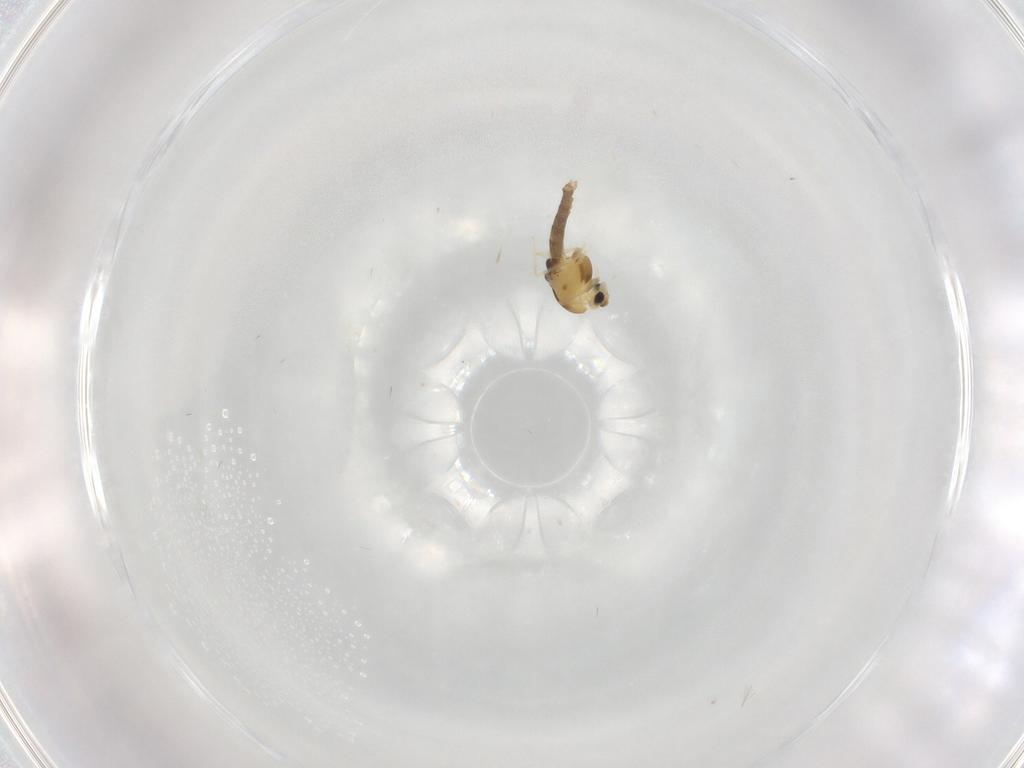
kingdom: Animalia
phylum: Arthropoda
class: Insecta
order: Diptera
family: Chironomidae
